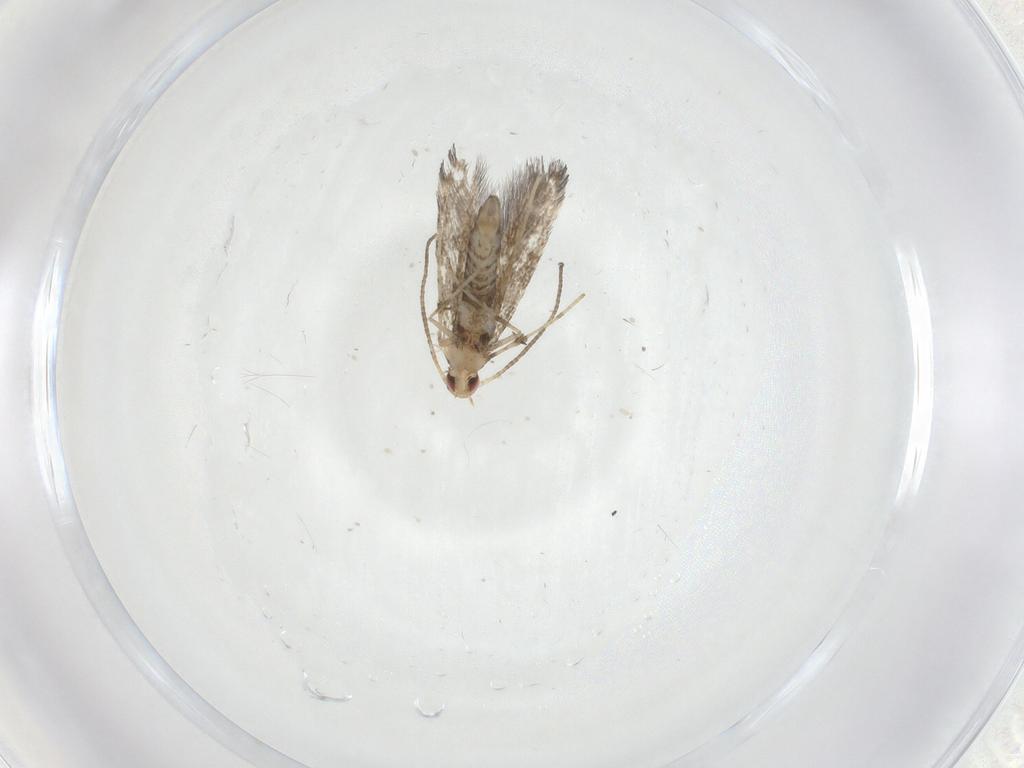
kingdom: Animalia
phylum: Arthropoda
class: Insecta
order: Lepidoptera
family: Gracillariidae
